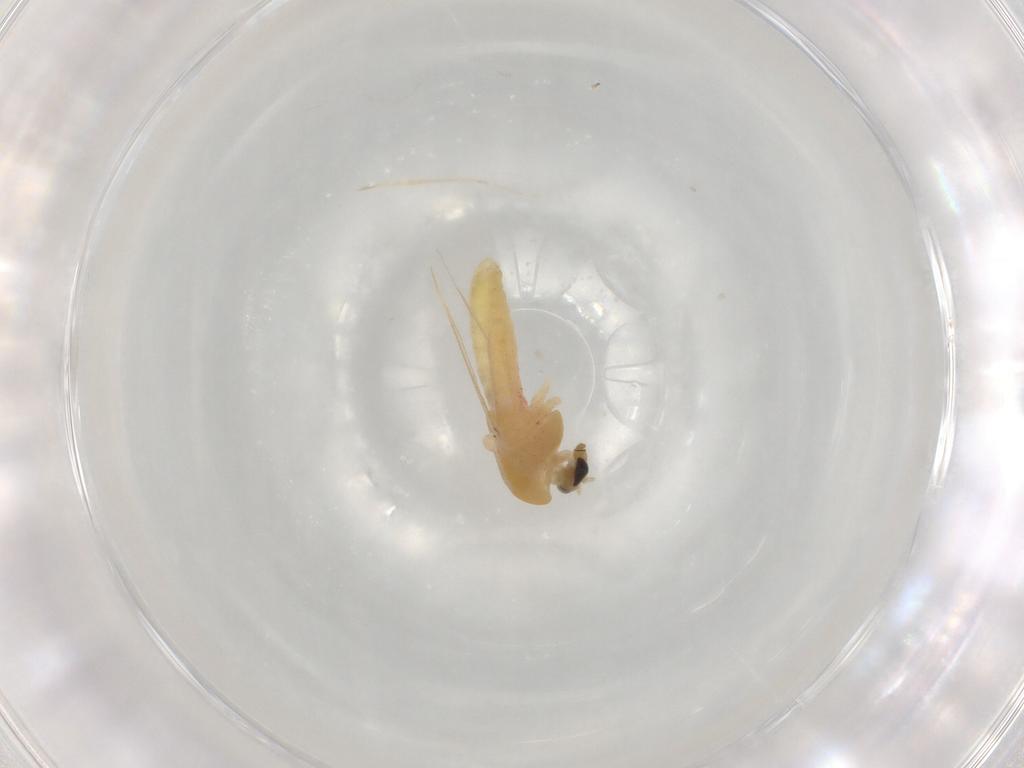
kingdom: Animalia
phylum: Arthropoda
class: Insecta
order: Diptera
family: Chironomidae
